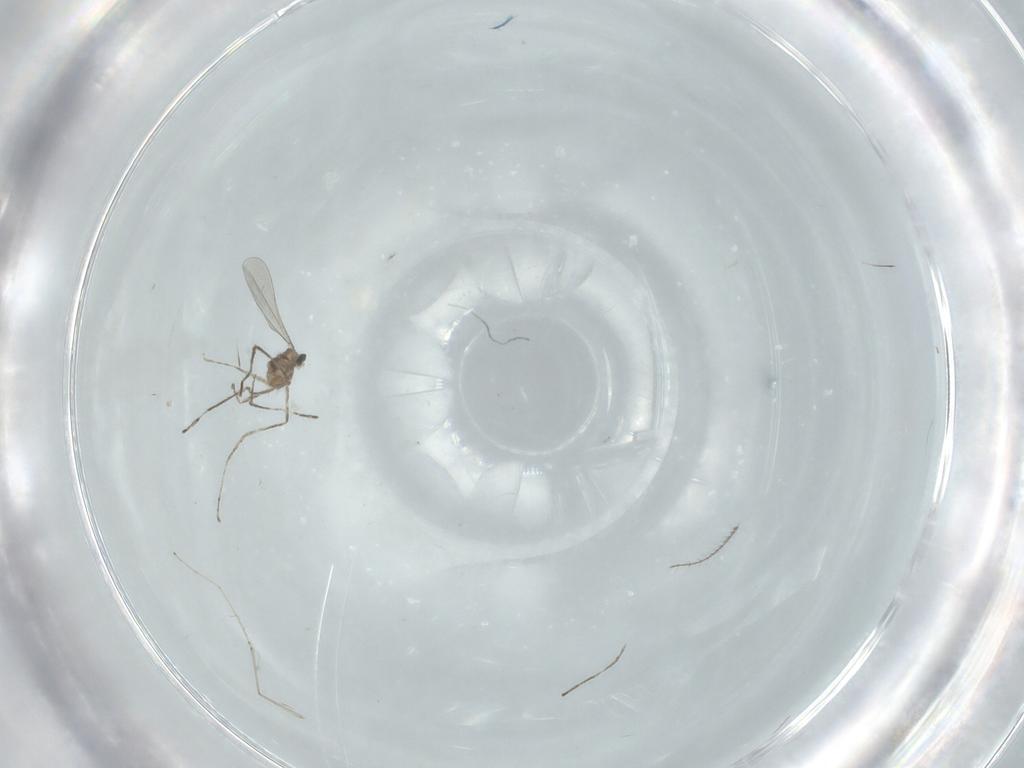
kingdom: Animalia
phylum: Arthropoda
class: Insecta
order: Diptera
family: Cecidomyiidae
